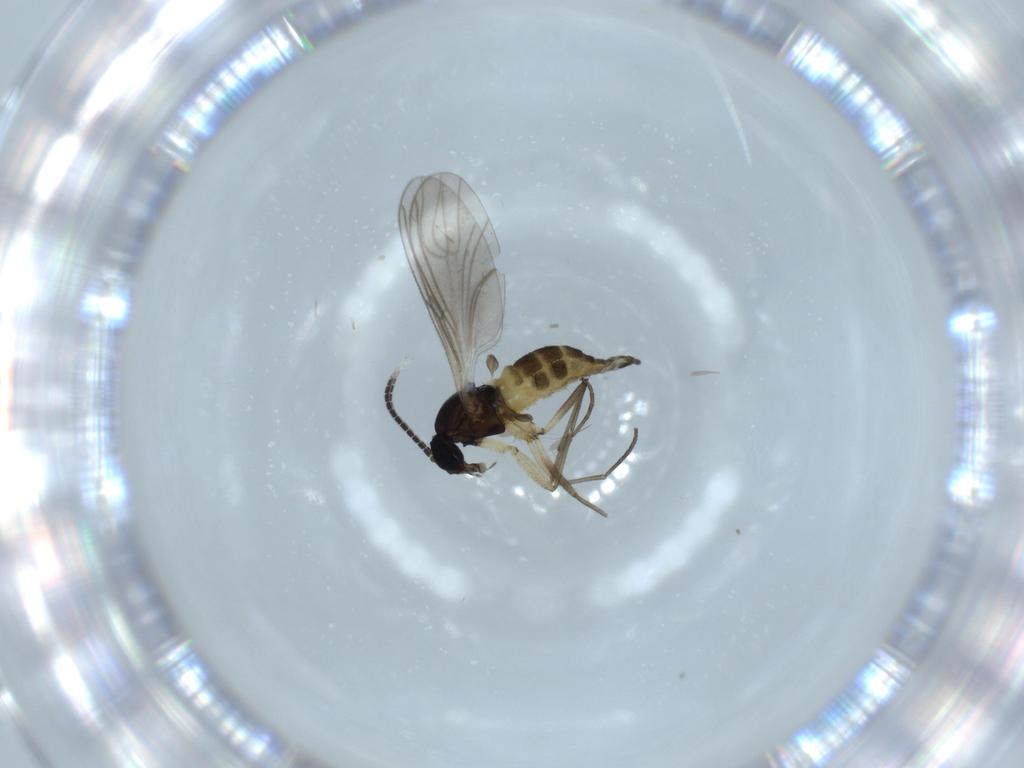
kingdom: Animalia
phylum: Arthropoda
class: Insecta
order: Diptera
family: Sciaridae
